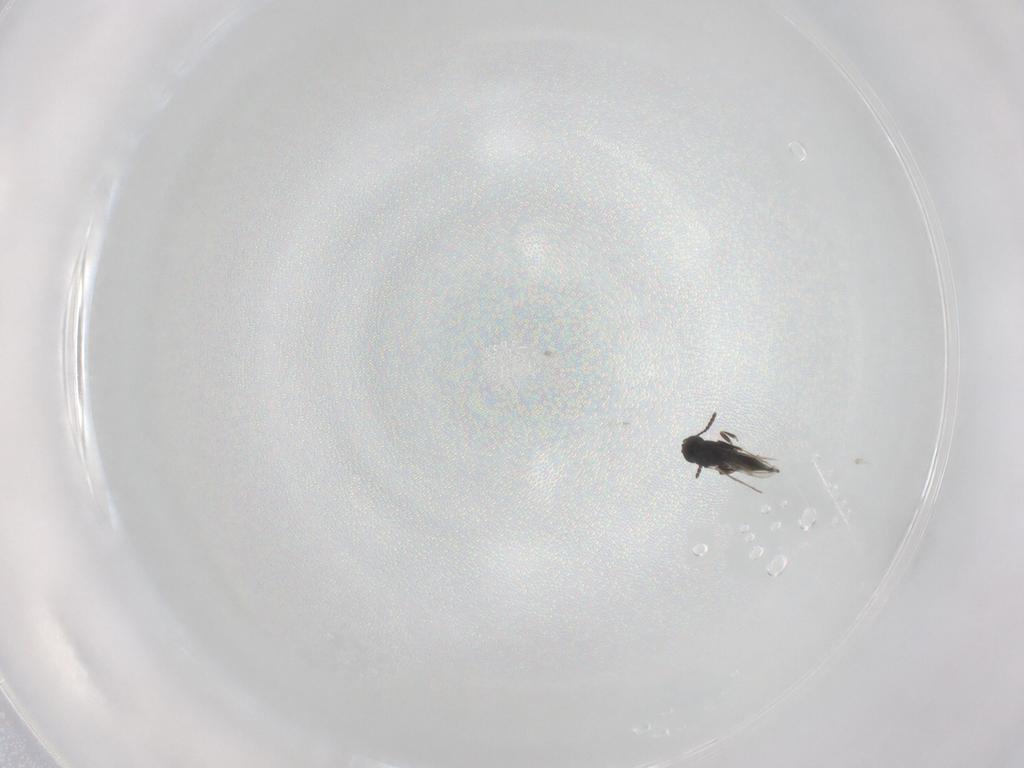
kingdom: Animalia
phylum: Arthropoda
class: Insecta
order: Hymenoptera
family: Scelionidae
